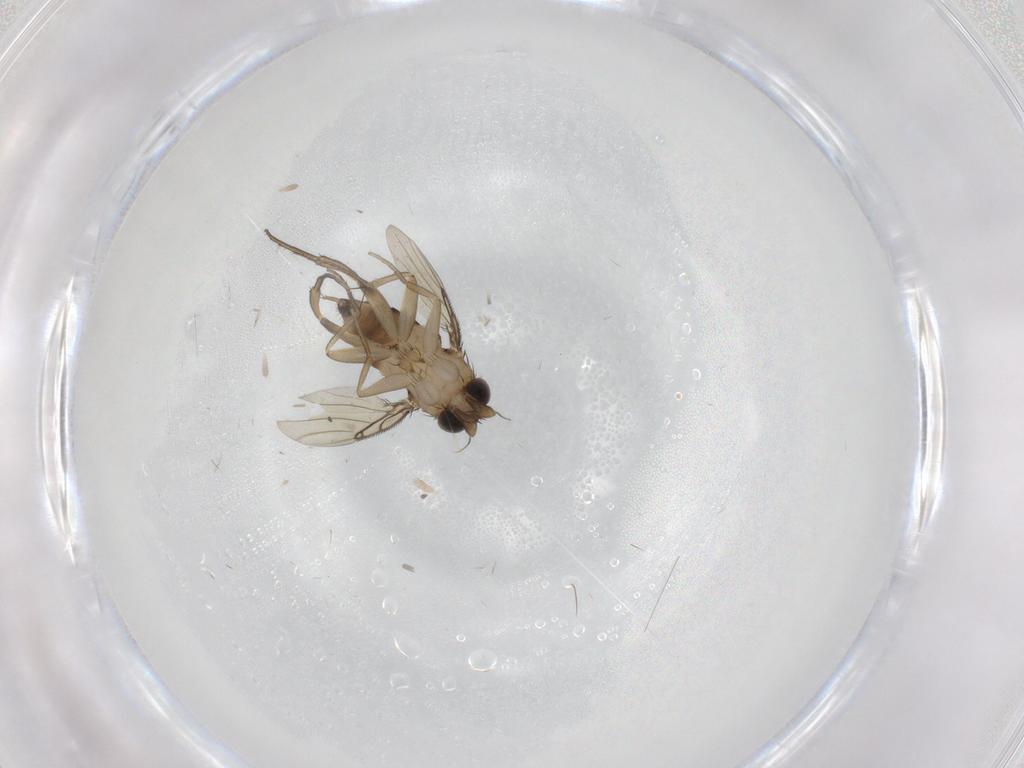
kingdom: Animalia
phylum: Arthropoda
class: Insecta
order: Diptera
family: Phoridae
